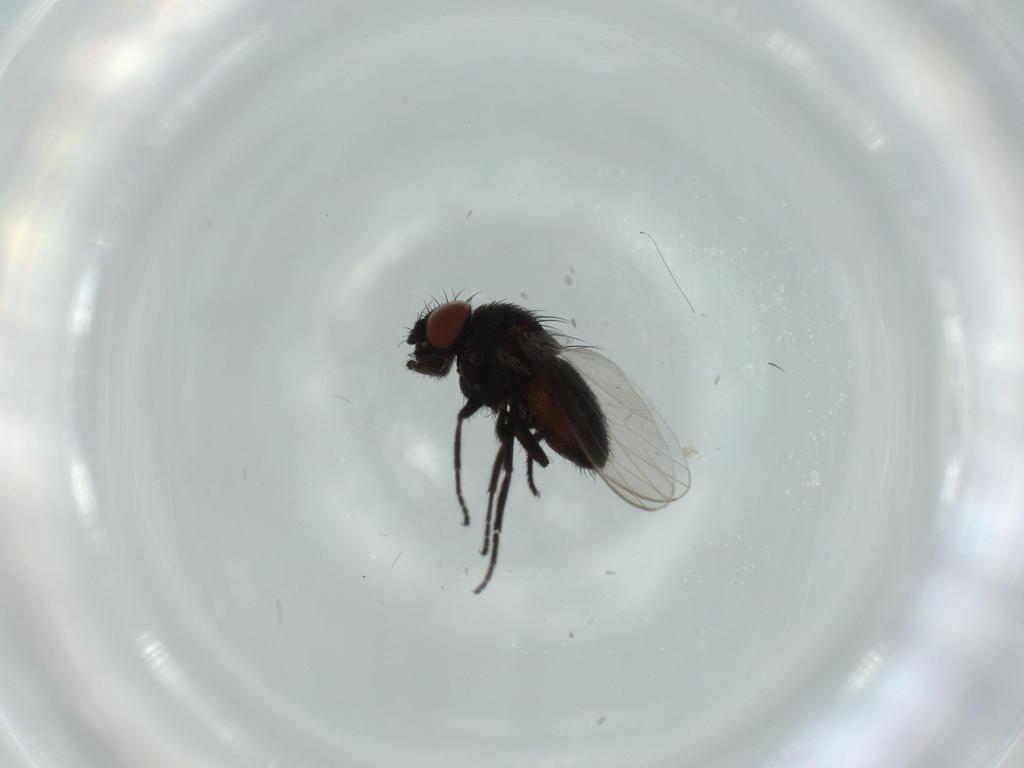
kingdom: Animalia
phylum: Arthropoda
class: Insecta
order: Diptera
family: Milichiidae
